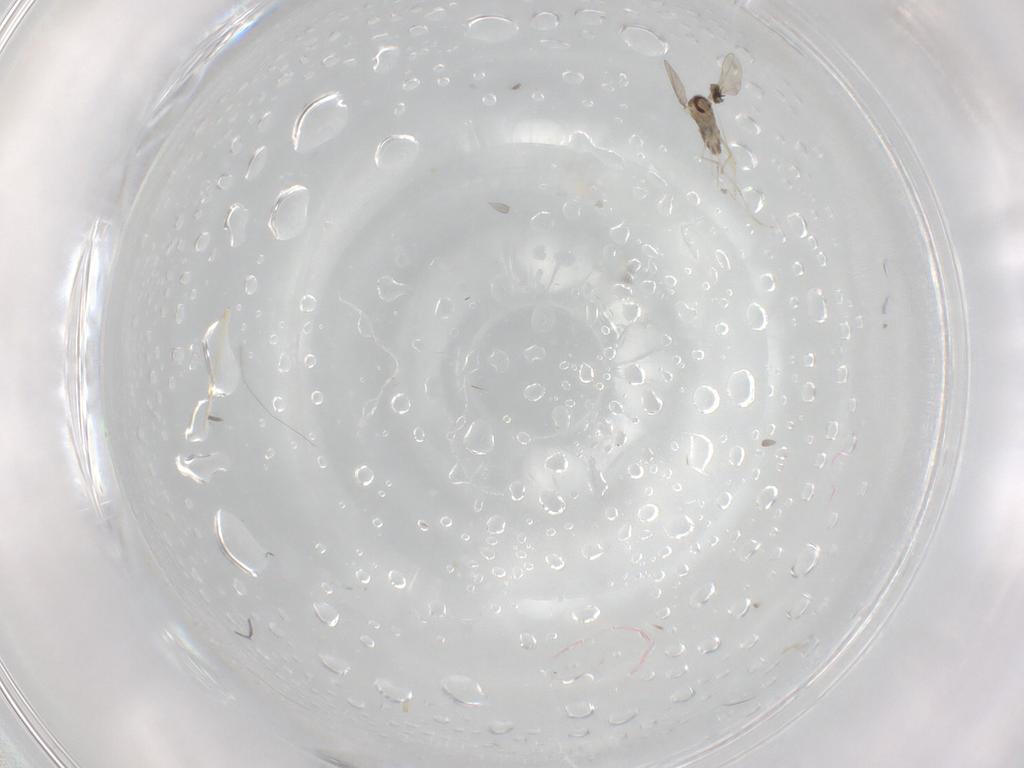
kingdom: Animalia
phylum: Arthropoda
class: Insecta
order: Diptera
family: Cecidomyiidae
